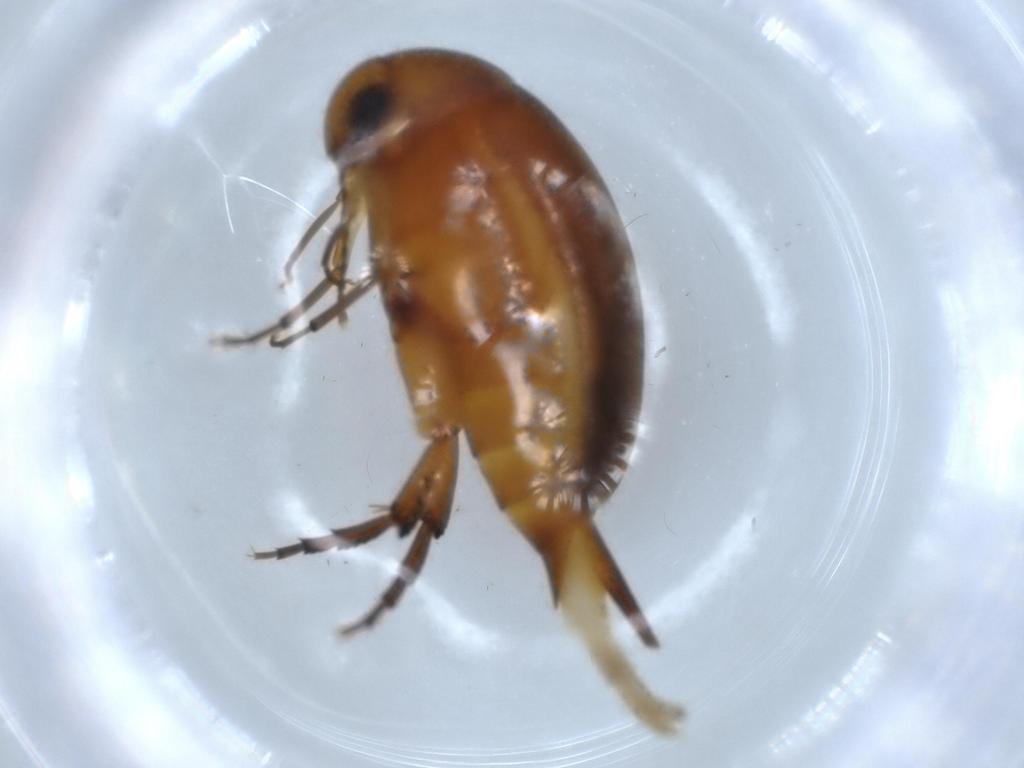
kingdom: Animalia
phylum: Arthropoda
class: Insecta
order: Coleoptera
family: Mordellidae
